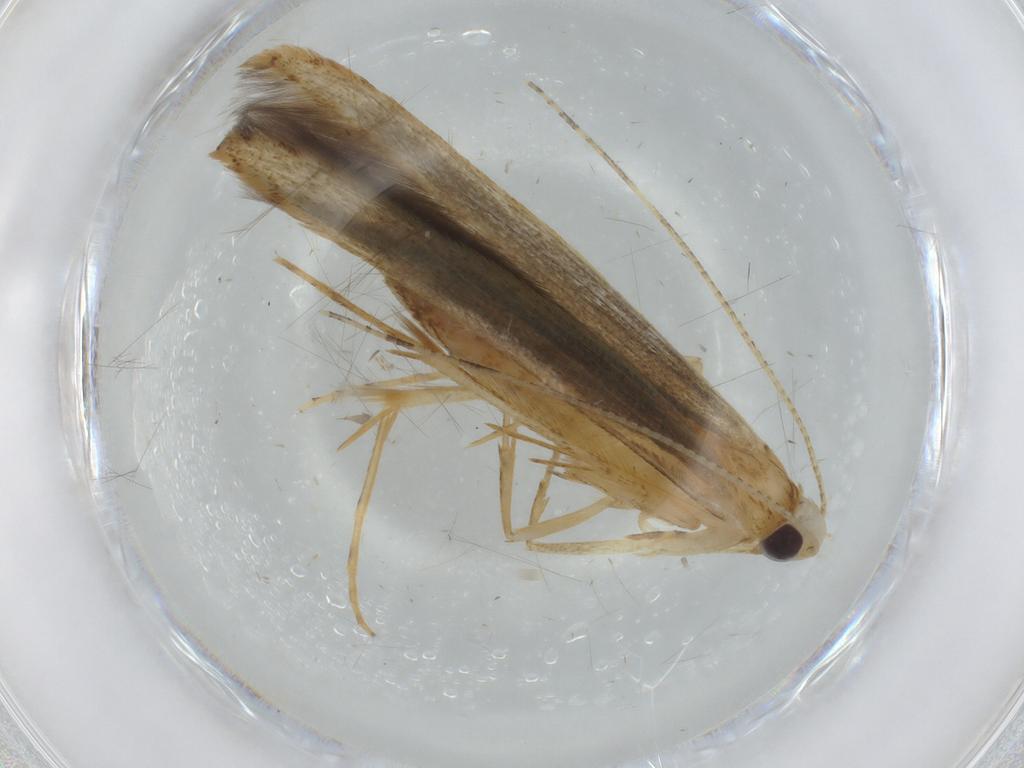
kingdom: Animalia
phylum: Arthropoda
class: Insecta
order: Lepidoptera
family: Batrachedridae
